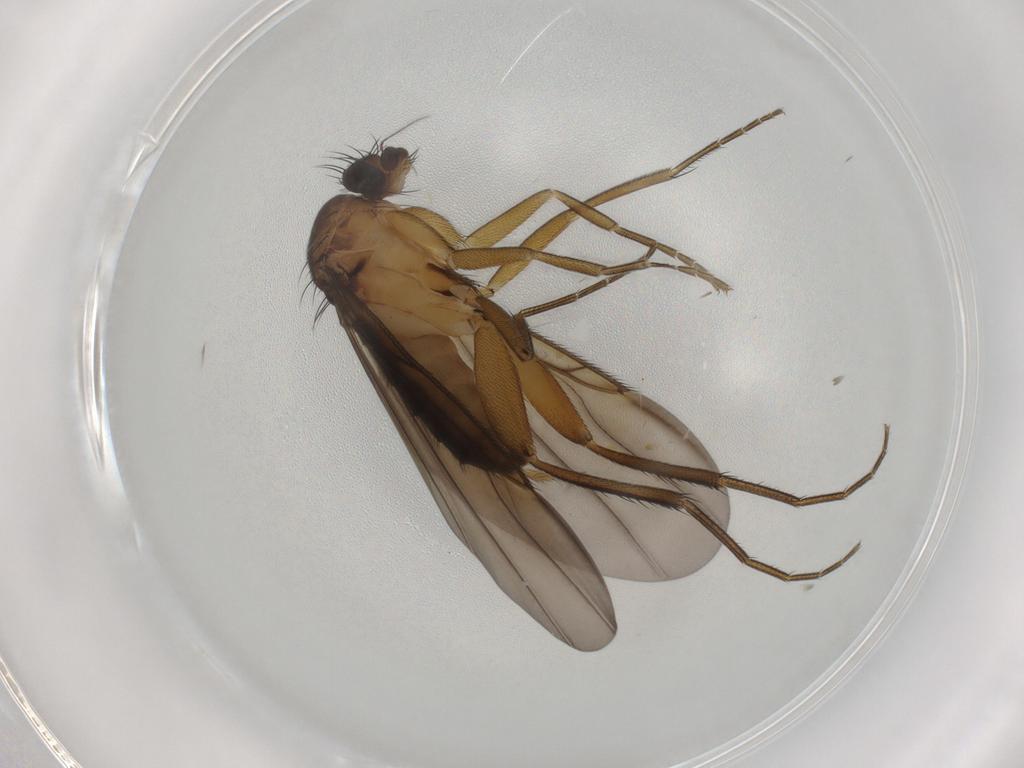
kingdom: Animalia
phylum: Arthropoda
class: Insecta
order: Diptera
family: Phoridae
